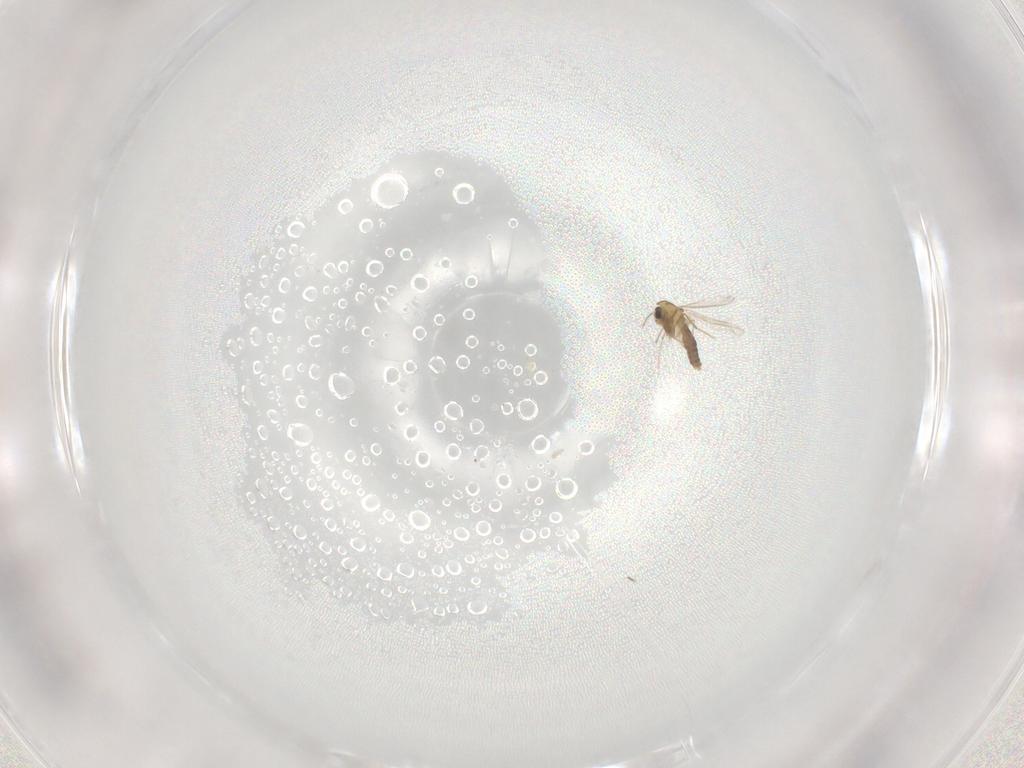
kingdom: Animalia
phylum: Arthropoda
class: Insecta
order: Diptera
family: Chironomidae
